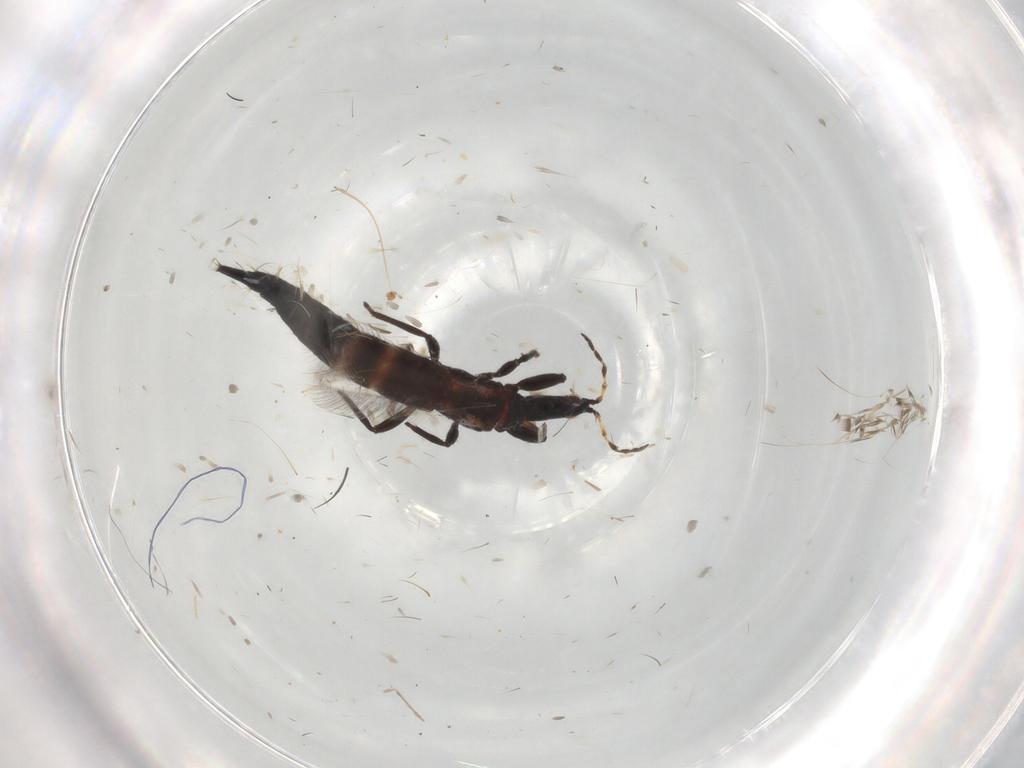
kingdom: Animalia
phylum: Arthropoda
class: Insecta
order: Thysanoptera
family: Phlaeothripidae
